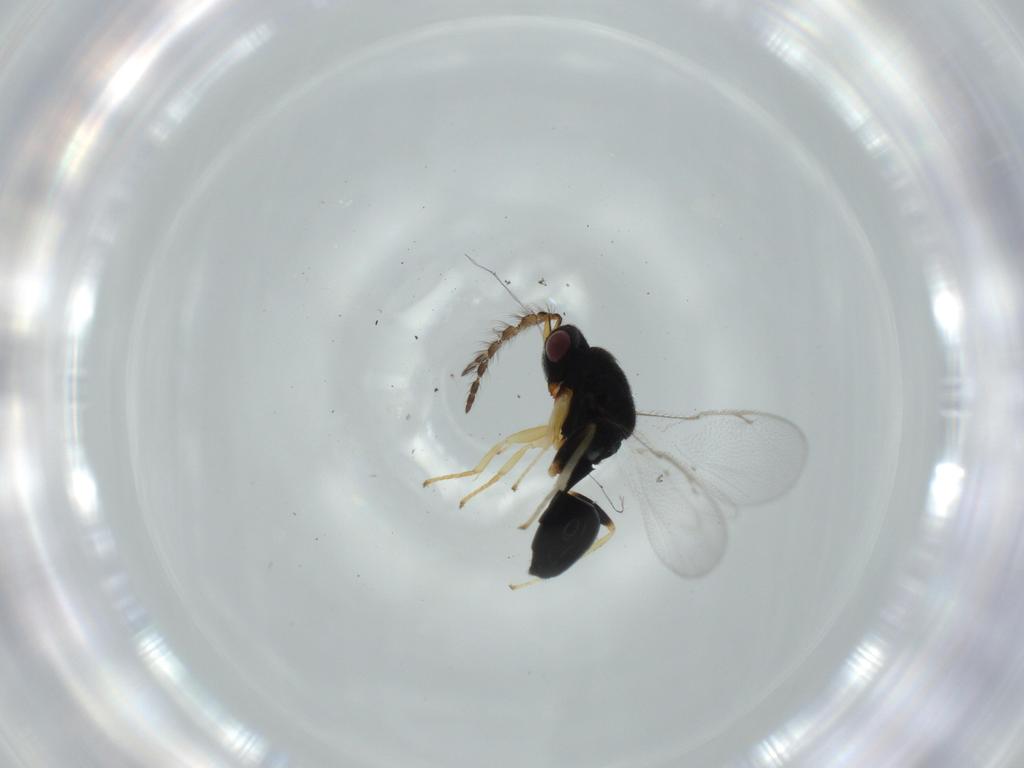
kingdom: Animalia
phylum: Arthropoda
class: Insecta
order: Hymenoptera
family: Eurytomidae
